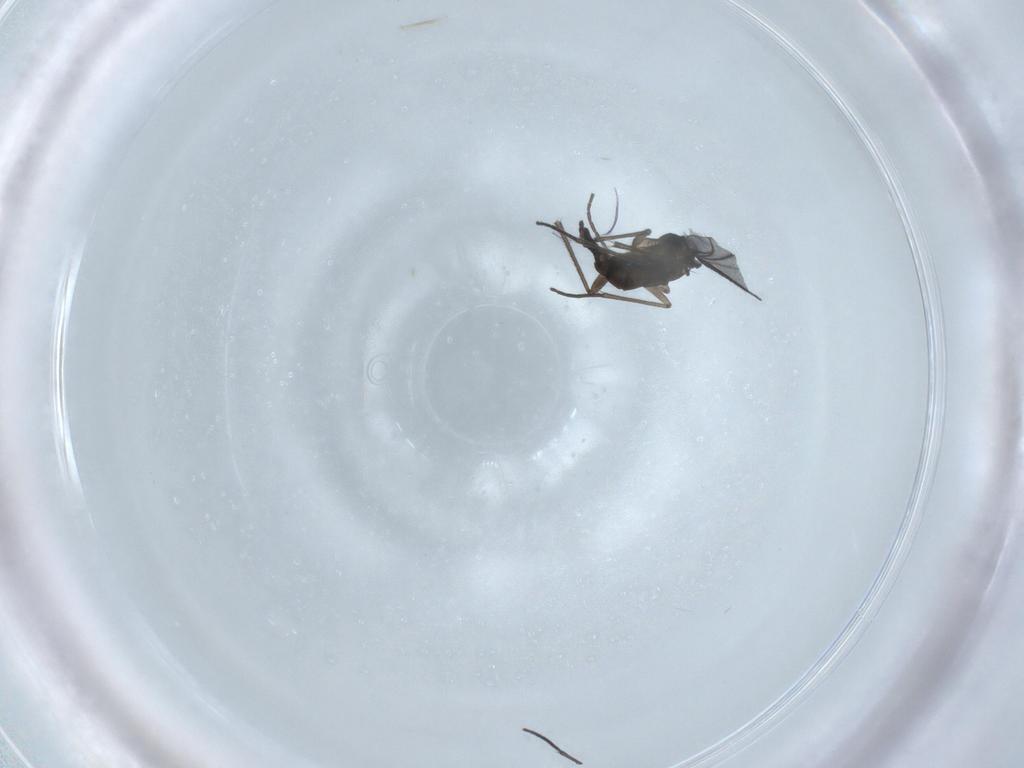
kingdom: Animalia
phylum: Arthropoda
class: Insecta
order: Diptera
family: Sciaridae
